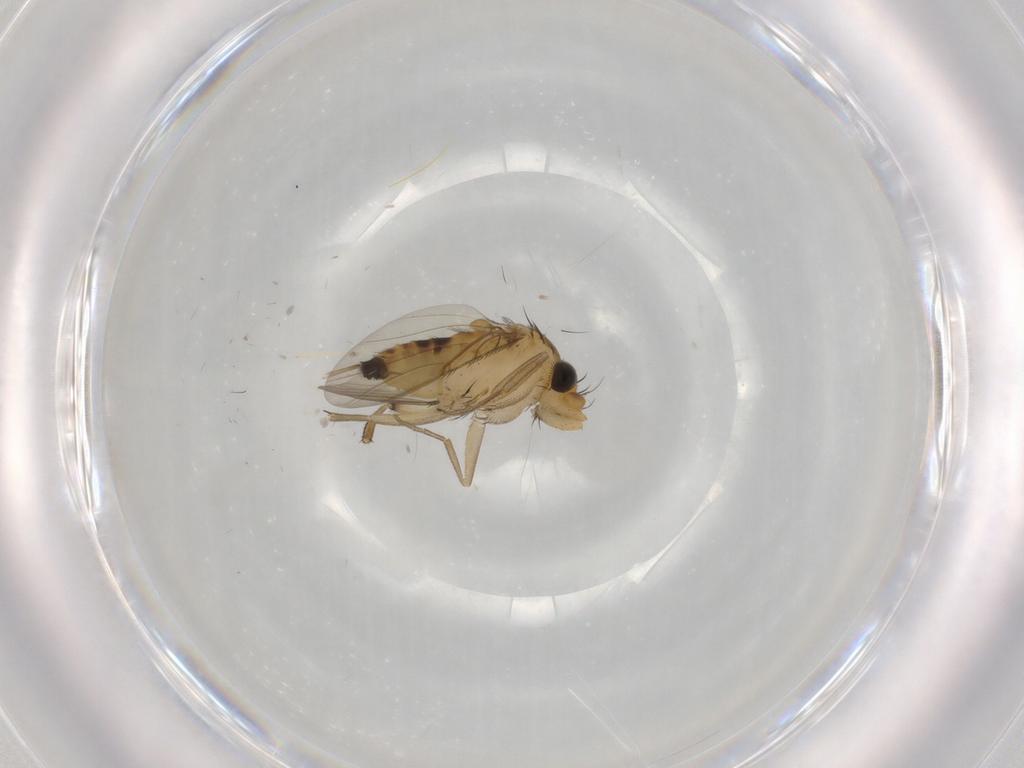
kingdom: Animalia
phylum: Arthropoda
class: Insecta
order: Diptera
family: Phoridae
